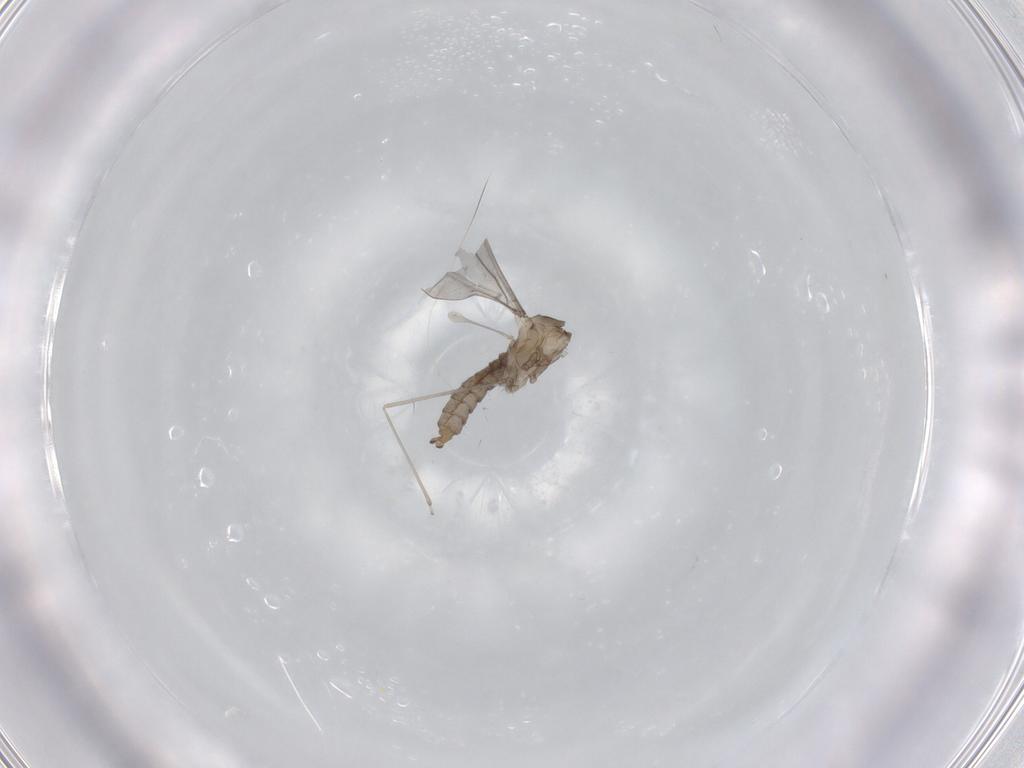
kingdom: Animalia
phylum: Arthropoda
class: Insecta
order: Diptera
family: Cecidomyiidae
